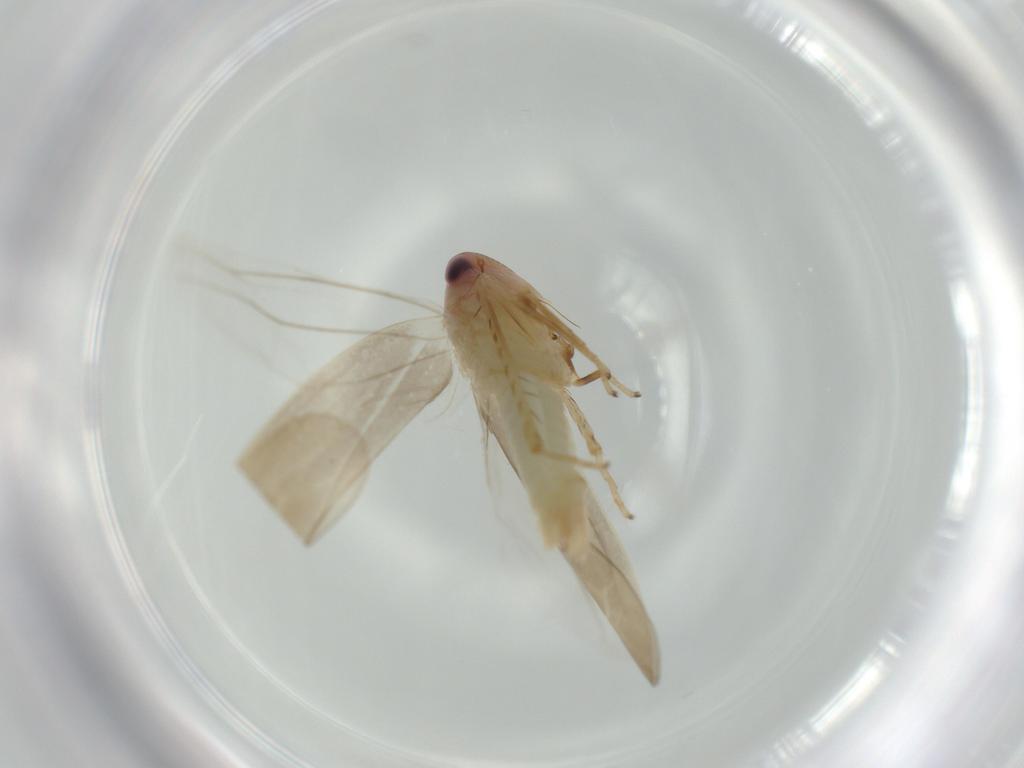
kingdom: Animalia
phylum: Arthropoda
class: Insecta
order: Hemiptera
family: Cicadellidae
